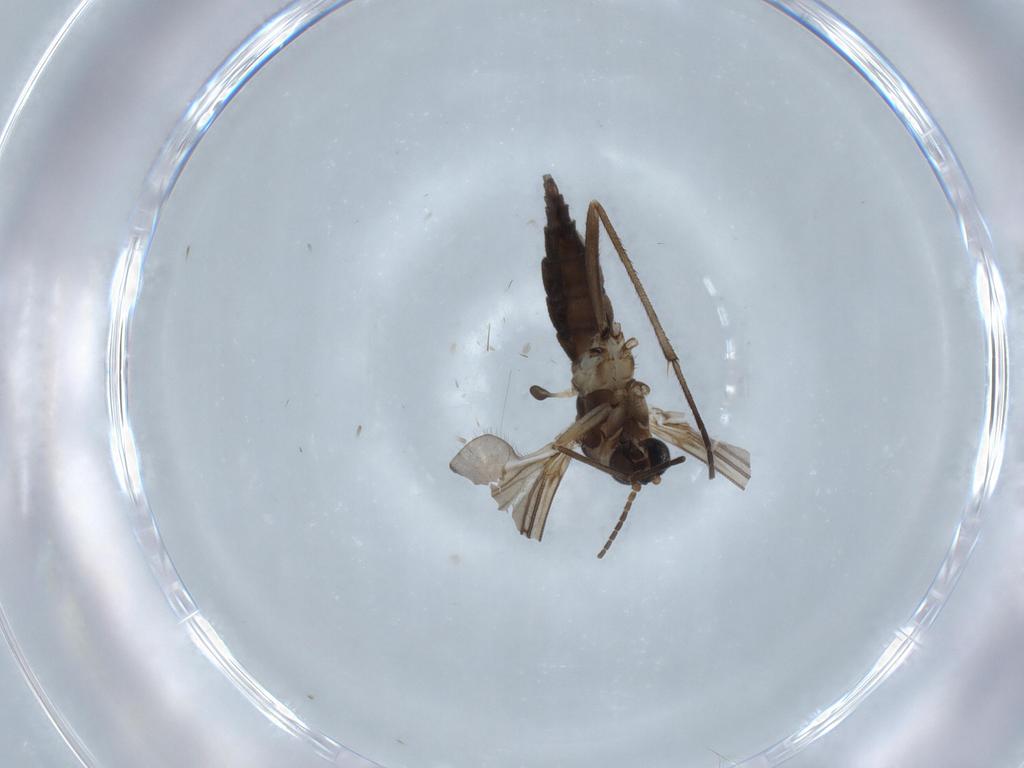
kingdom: Animalia
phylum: Arthropoda
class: Insecta
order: Diptera
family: Sciaridae
